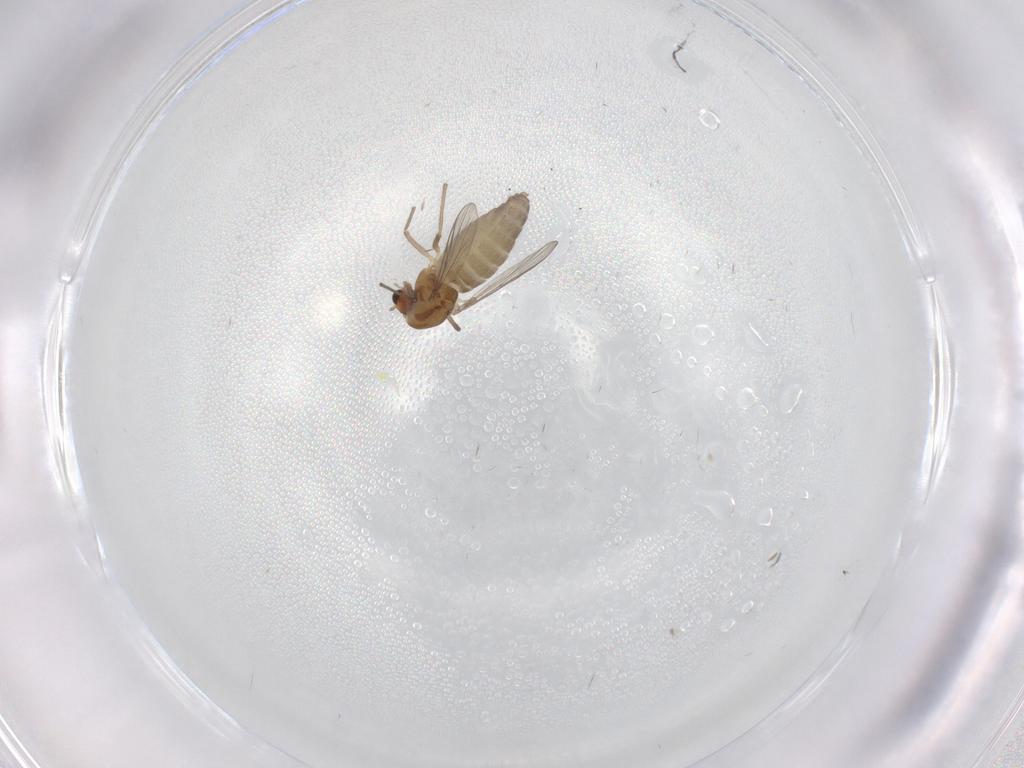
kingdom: Animalia
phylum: Arthropoda
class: Insecta
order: Diptera
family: Chironomidae
